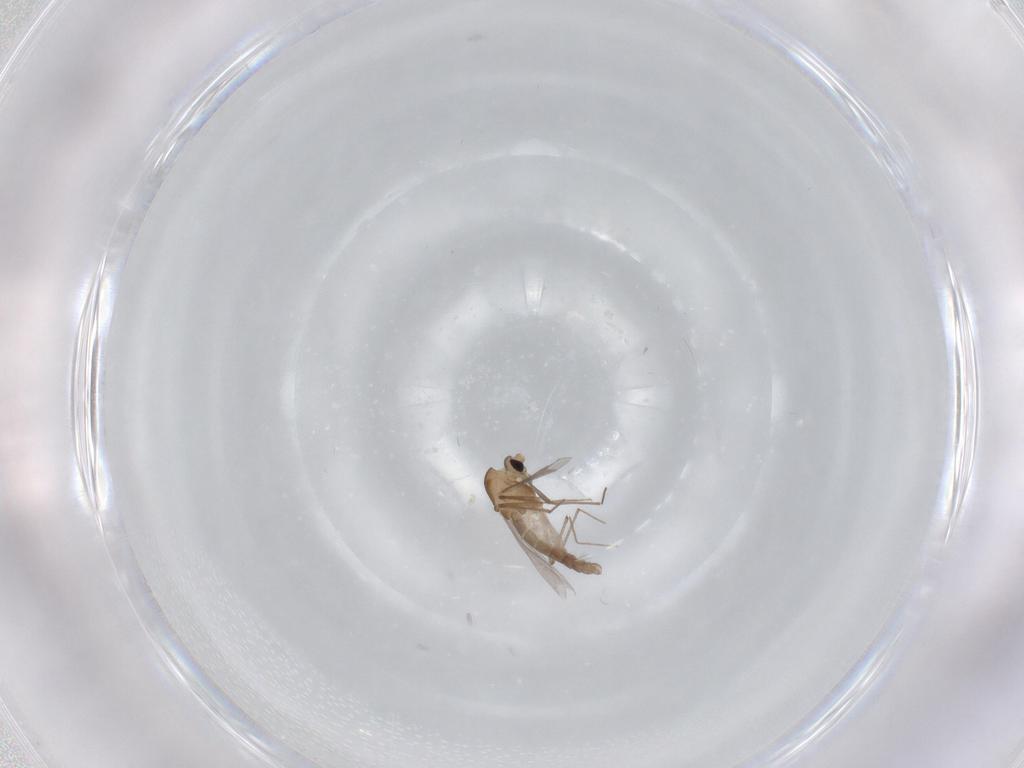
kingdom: Animalia
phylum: Arthropoda
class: Insecta
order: Diptera
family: Chironomidae
